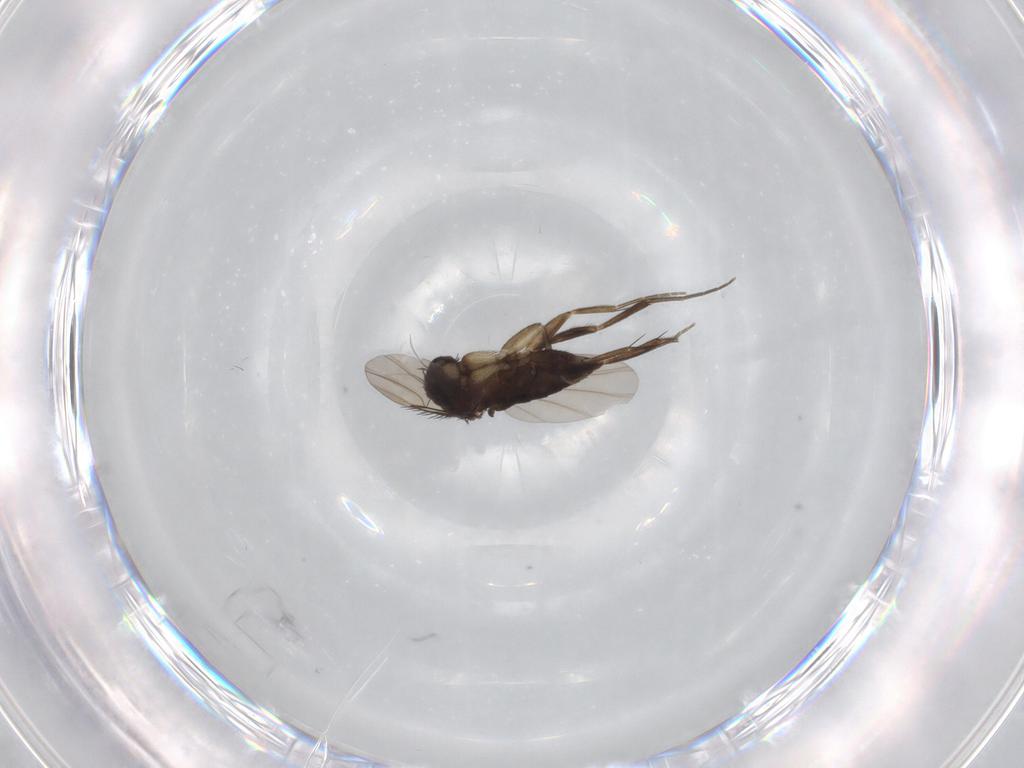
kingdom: Animalia
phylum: Arthropoda
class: Insecta
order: Diptera
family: Phoridae
